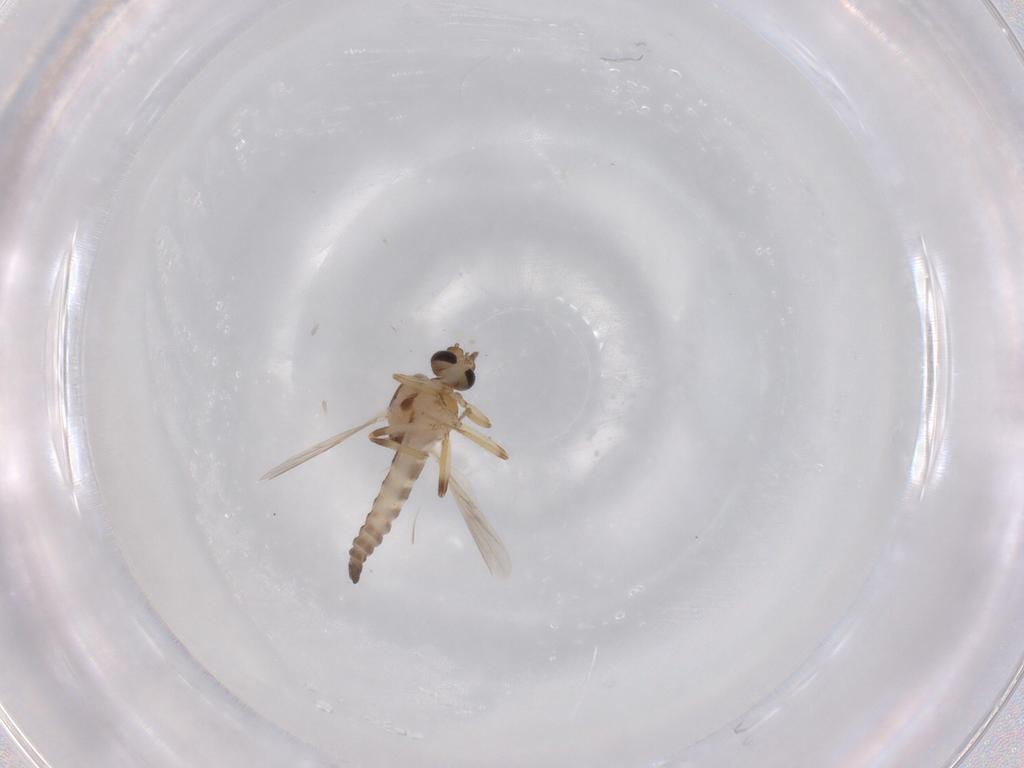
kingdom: Animalia
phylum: Arthropoda
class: Insecta
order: Diptera
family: Ceratopogonidae
